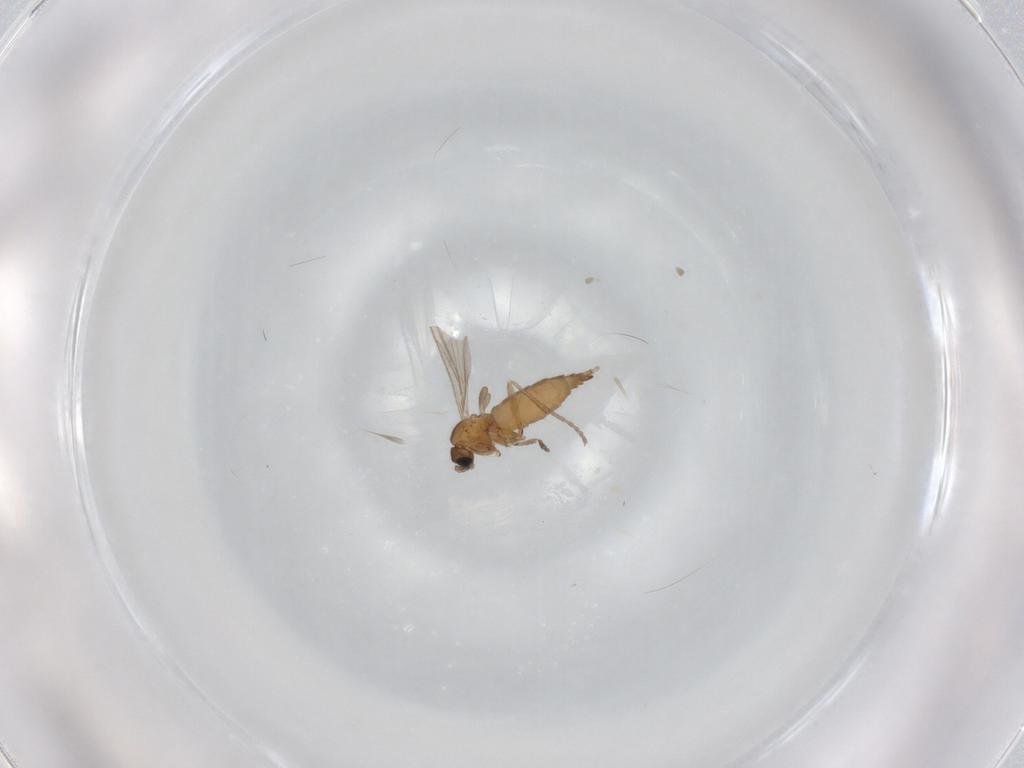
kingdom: Animalia
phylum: Arthropoda
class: Insecta
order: Diptera
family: Sciaridae
